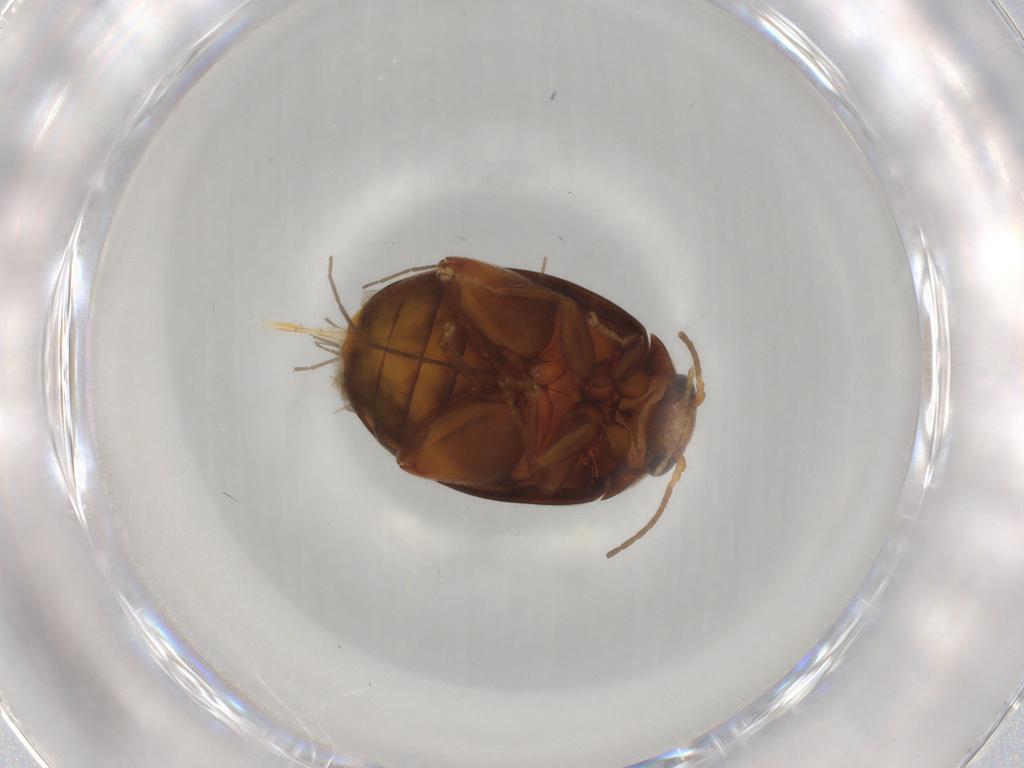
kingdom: Animalia
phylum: Arthropoda
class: Insecta
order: Coleoptera
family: Scirtidae
